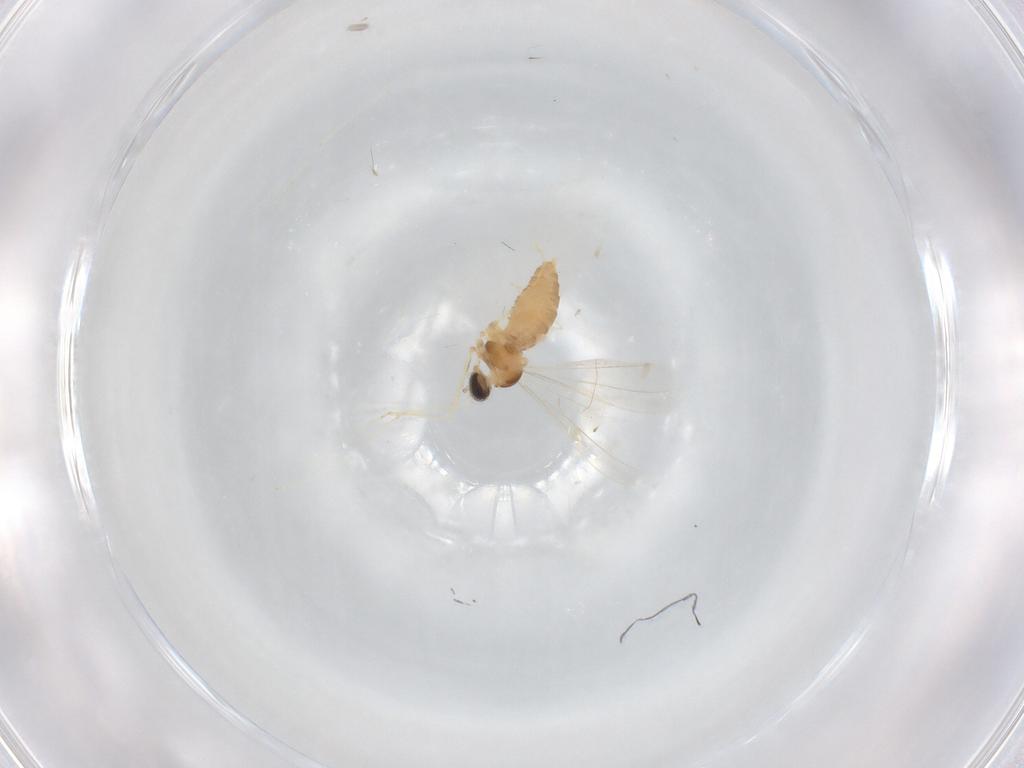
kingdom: Animalia
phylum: Arthropoda
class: Insecta
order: Diptera
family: Cecidomyiidae
